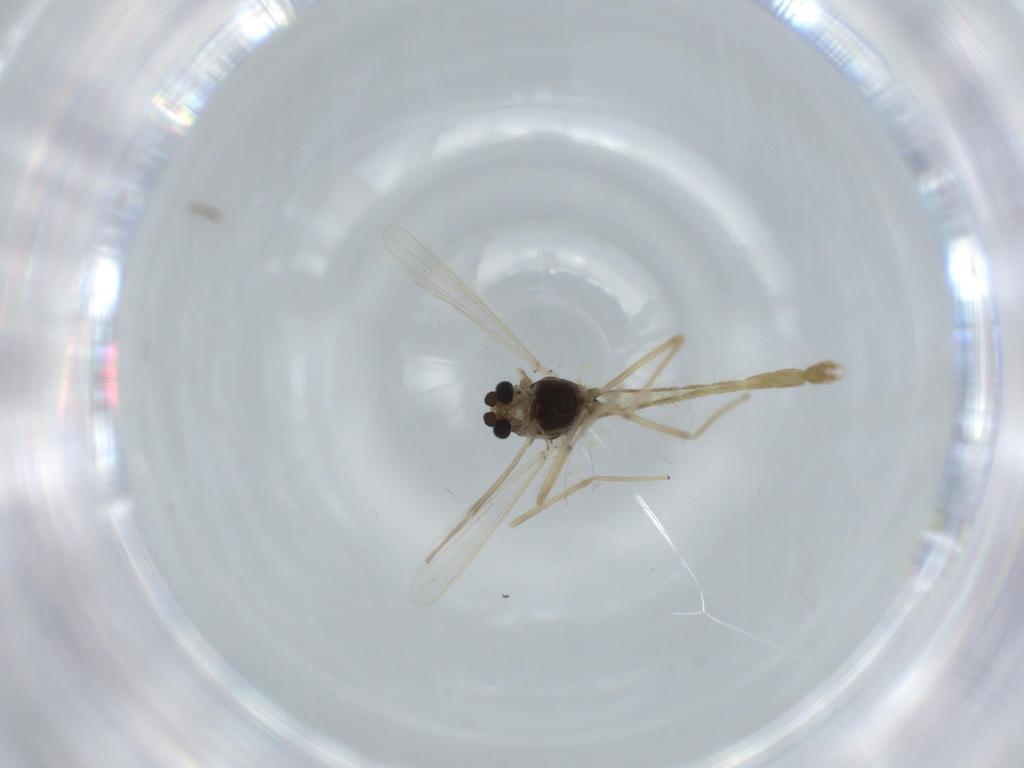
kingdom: Animalia
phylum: Arthropoda
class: Insecta
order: Diptera
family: Chironomidae
